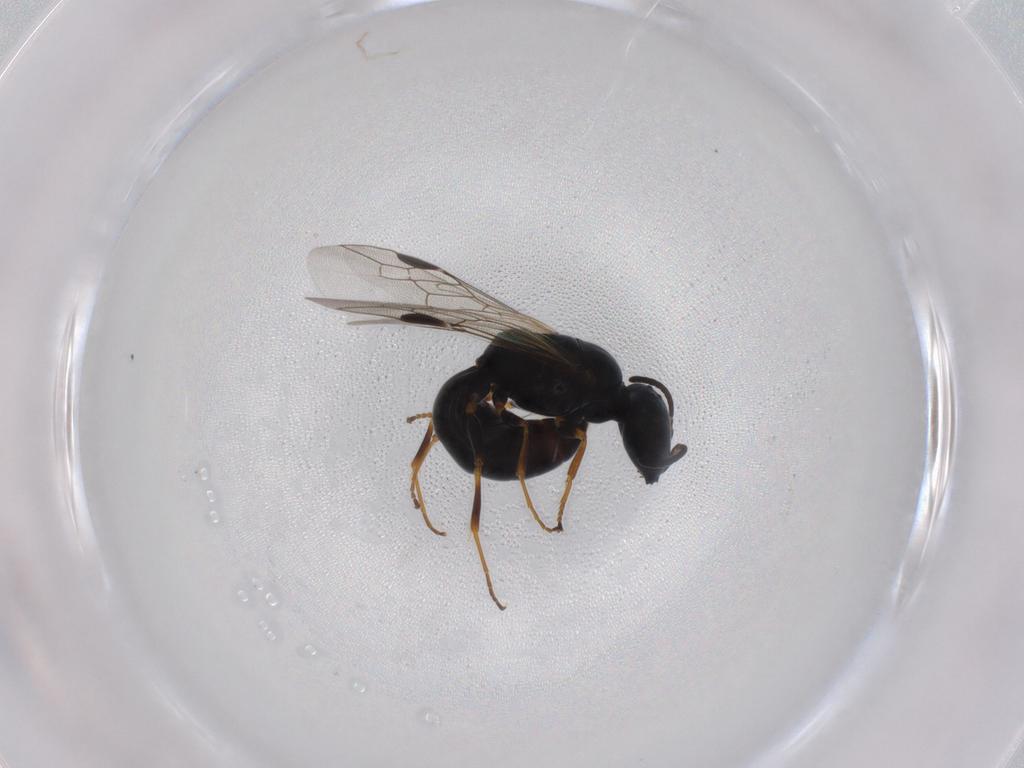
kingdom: Animalia
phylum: Arthropoda
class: Insecta
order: Hymenoptera
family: Pemphredonidae
